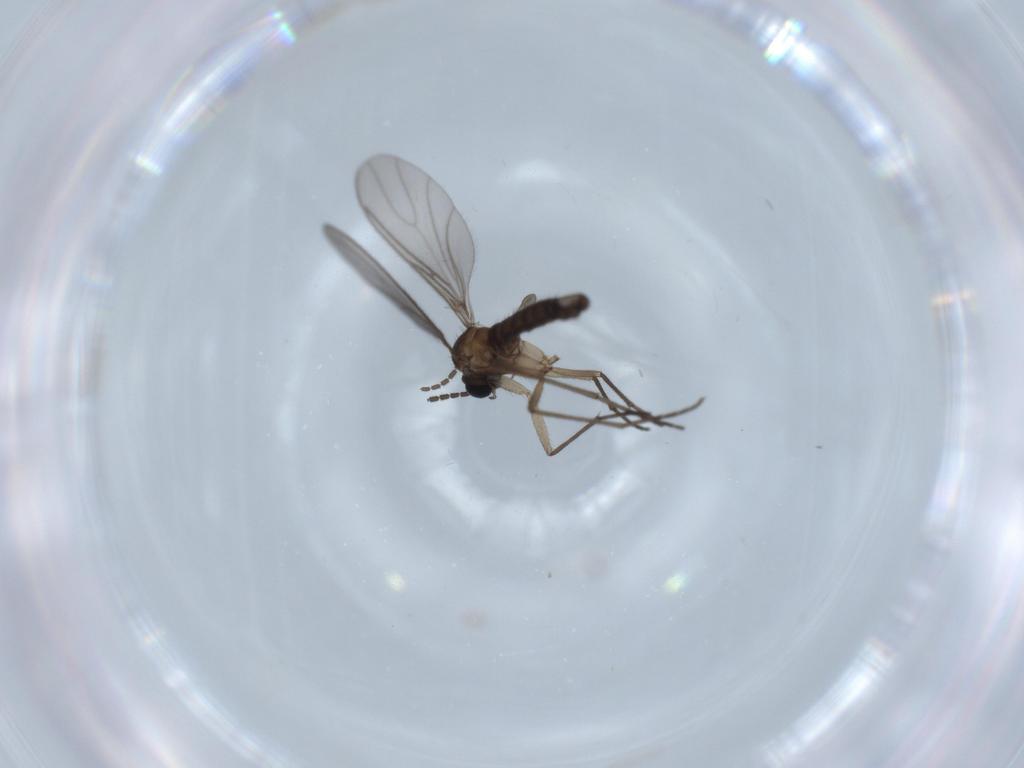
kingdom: Animalia
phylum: Arthropoda
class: Insecta
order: Diptera
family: Sciaridae
